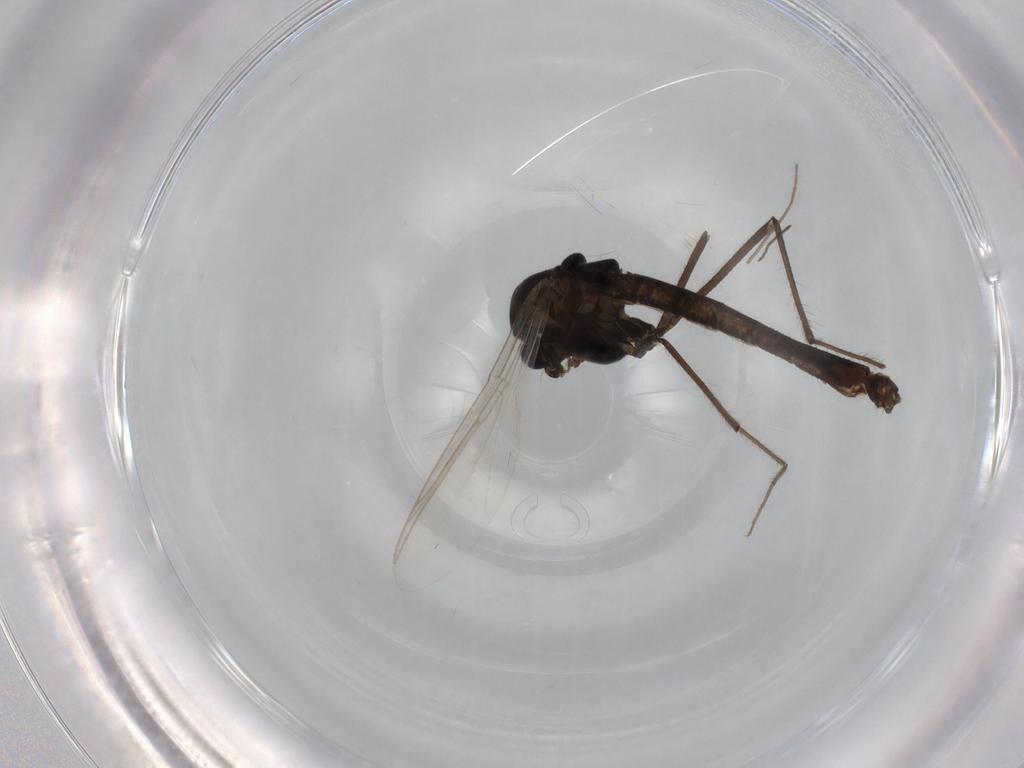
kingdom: Animalia
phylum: Arthropoda
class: Insecta
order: Diptera
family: Chironomidae
